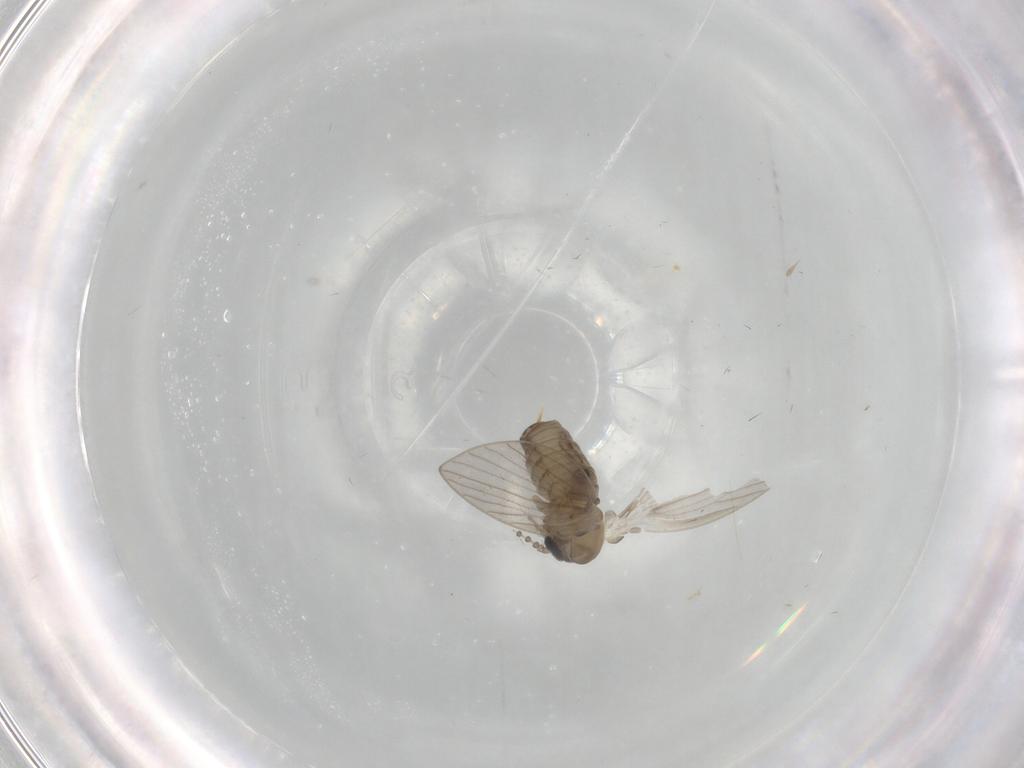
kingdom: Animalia
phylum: Arthropoda
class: Insecta
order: Diptera
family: Psychodidae
